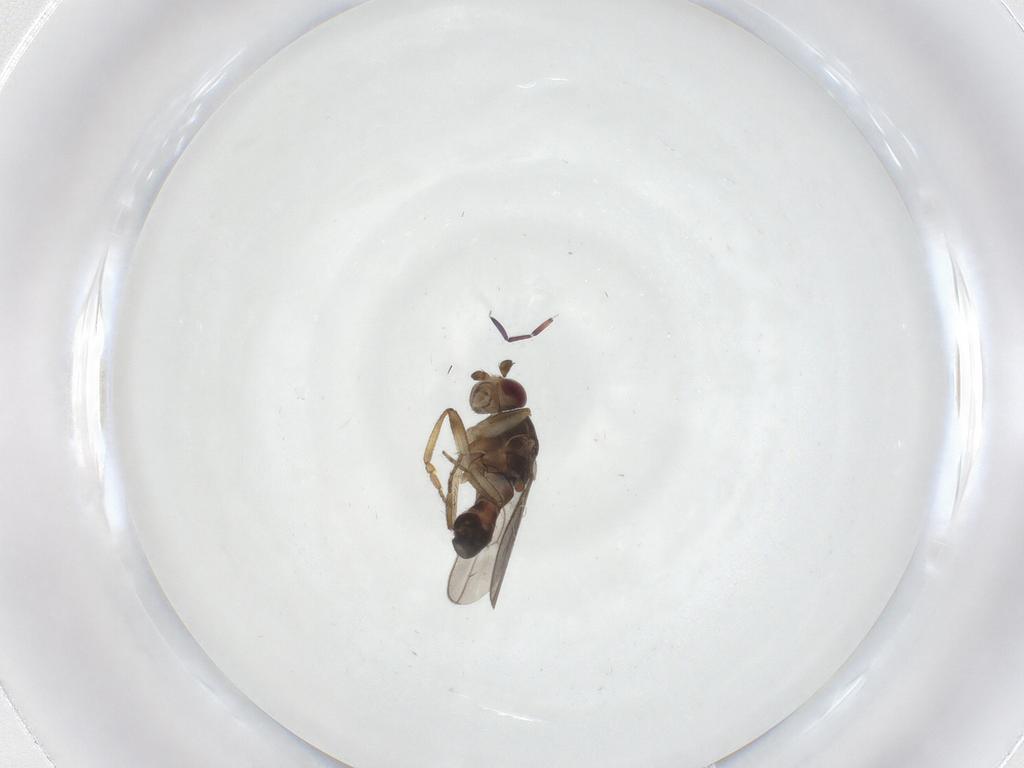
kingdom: Animalia
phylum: Arthropoda
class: Insecta
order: Diptera
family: Sphaeroceridae
